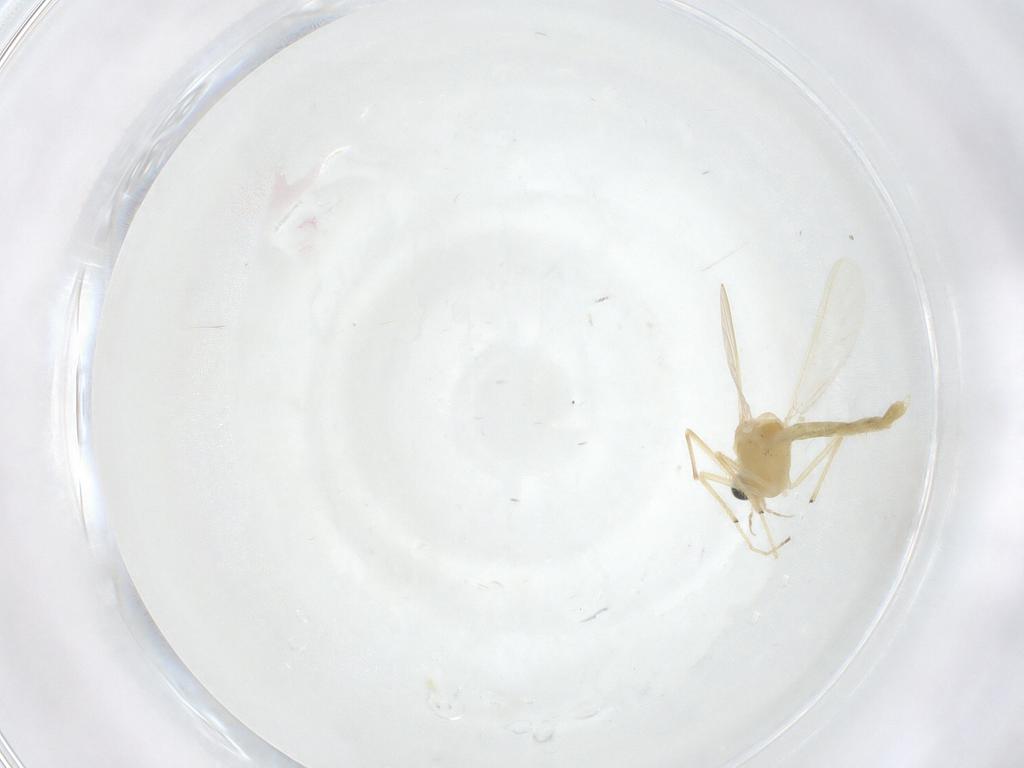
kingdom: Animalia
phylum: Arthropoda
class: Insecta
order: Diptera
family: Chironomidae
